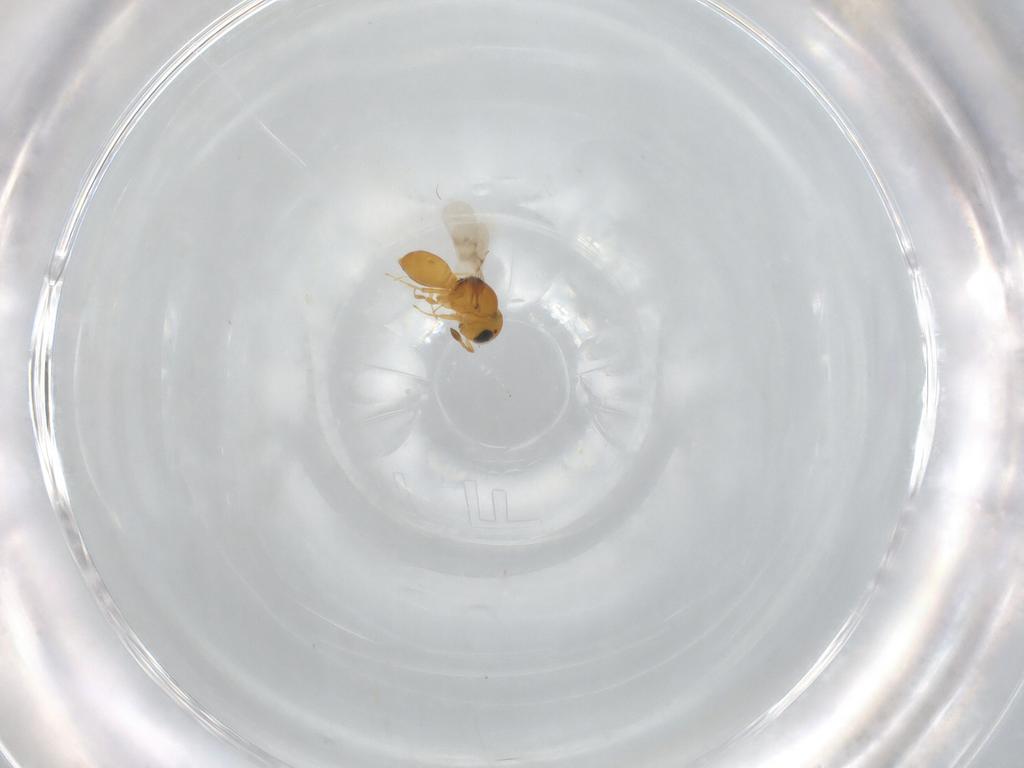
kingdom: Animalia
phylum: Arthropoda
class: Insecta
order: Hymenoptera
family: Scelionidae
